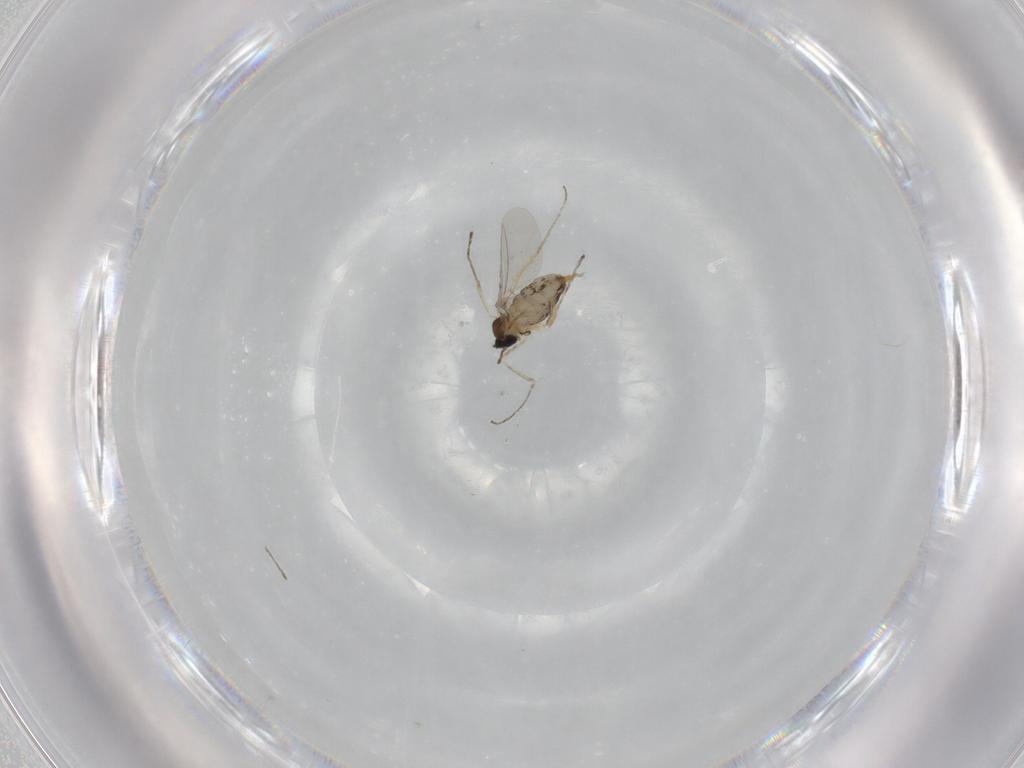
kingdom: Animalia
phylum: Arthropoda
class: Insecta
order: Diptera
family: Cecidomyiidae
